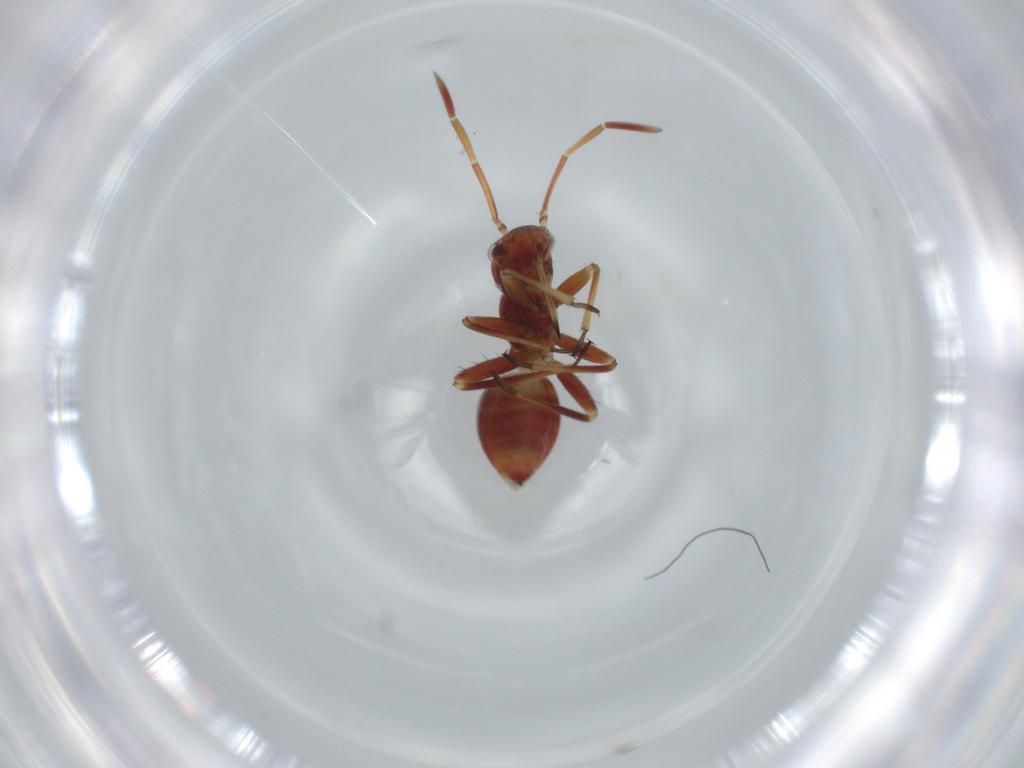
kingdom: Animalia
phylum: Arthropoda
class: Insecta
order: Hemiptera
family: Miridae
